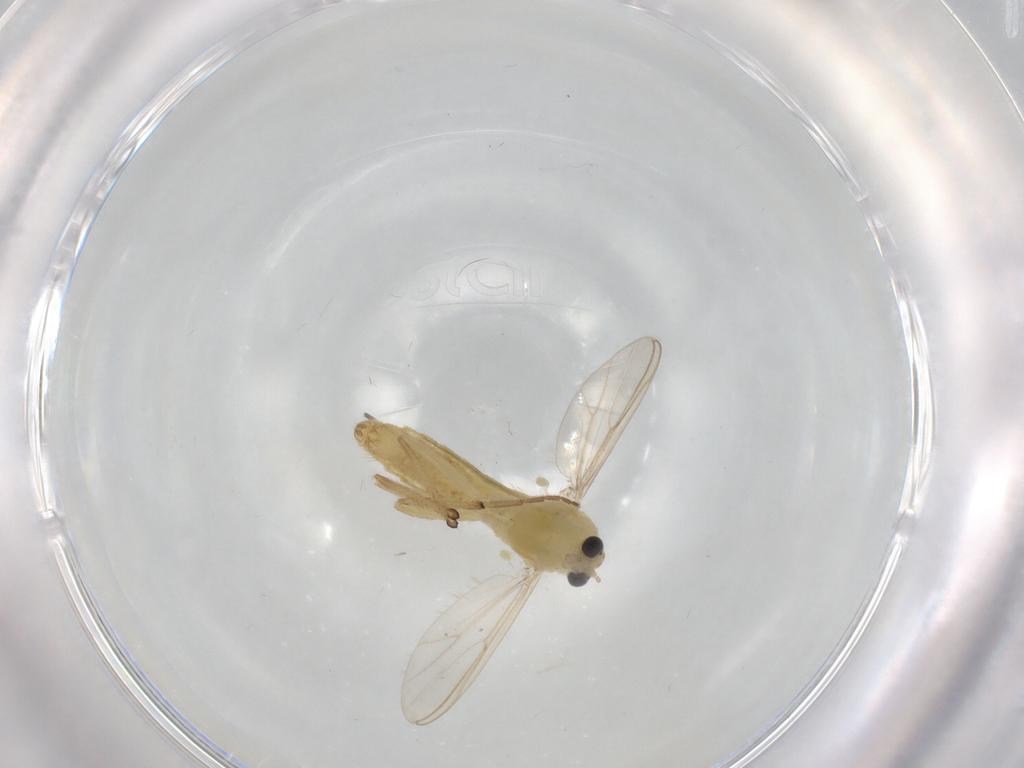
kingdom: Animalia
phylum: Arthropoda
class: Insecta
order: Diptera
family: Chironomidae
